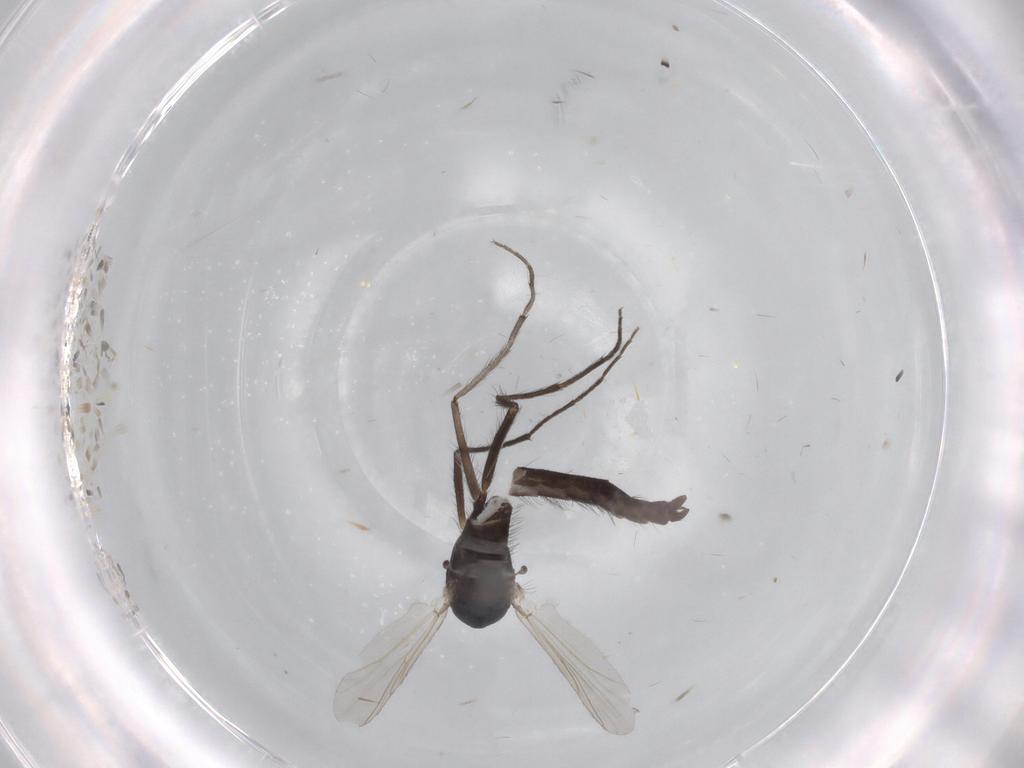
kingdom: Animalia
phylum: Arthropoda
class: Insecta
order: Diptera
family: Chironomidae
